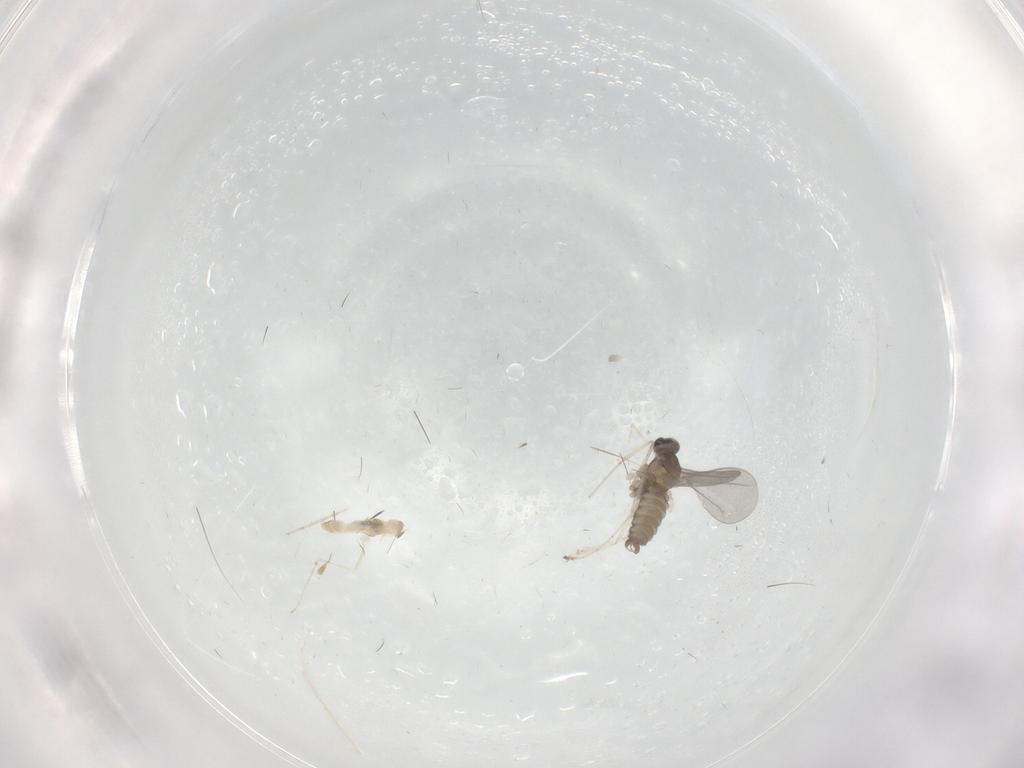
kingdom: Animalia
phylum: Arthropoda
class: Insecta
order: Diptera
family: Cecidomyiidae
